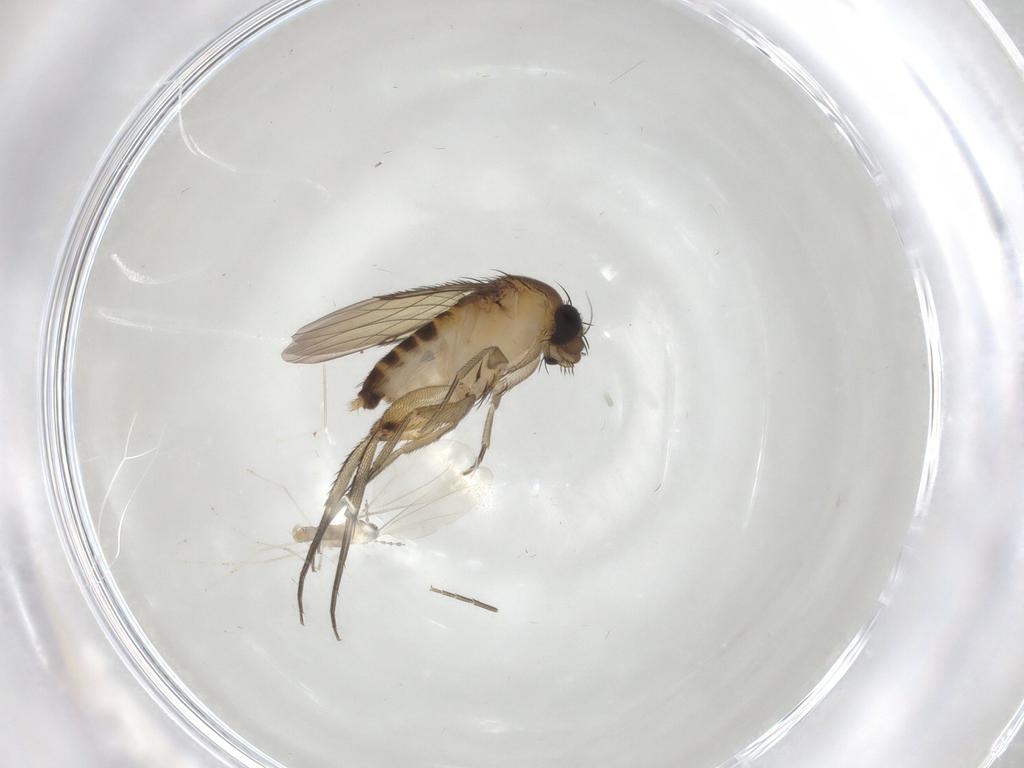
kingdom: Animalia
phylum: Arthropoda
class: Insecta
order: Diptera
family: Phoridae
